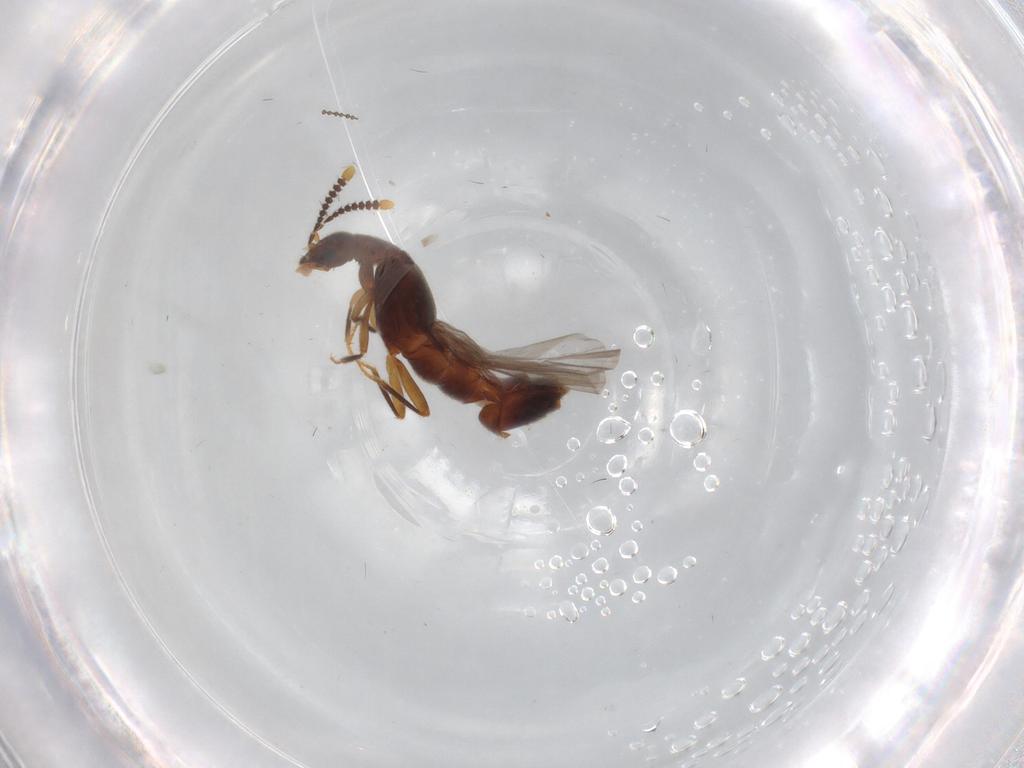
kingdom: Animalia
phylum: Arthropoda
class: Insecta
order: Coleoptera
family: Staphylinidae
